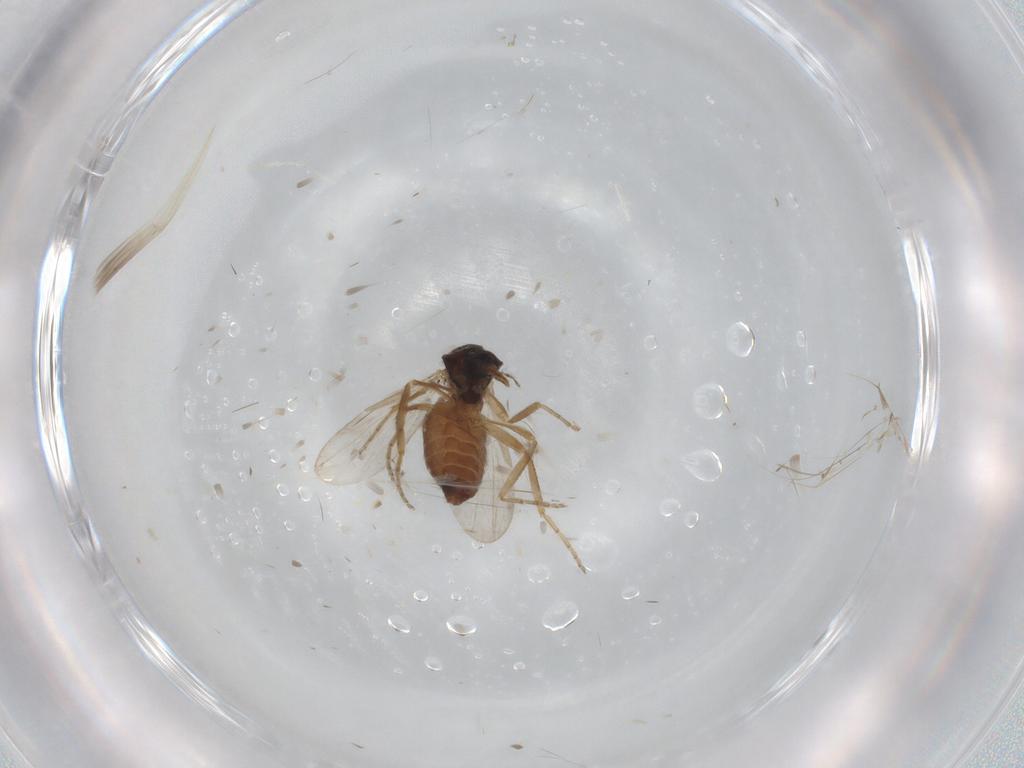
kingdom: Animalia
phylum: Arthropoda
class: Insecta
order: Diptera
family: Ceratopogonidae
